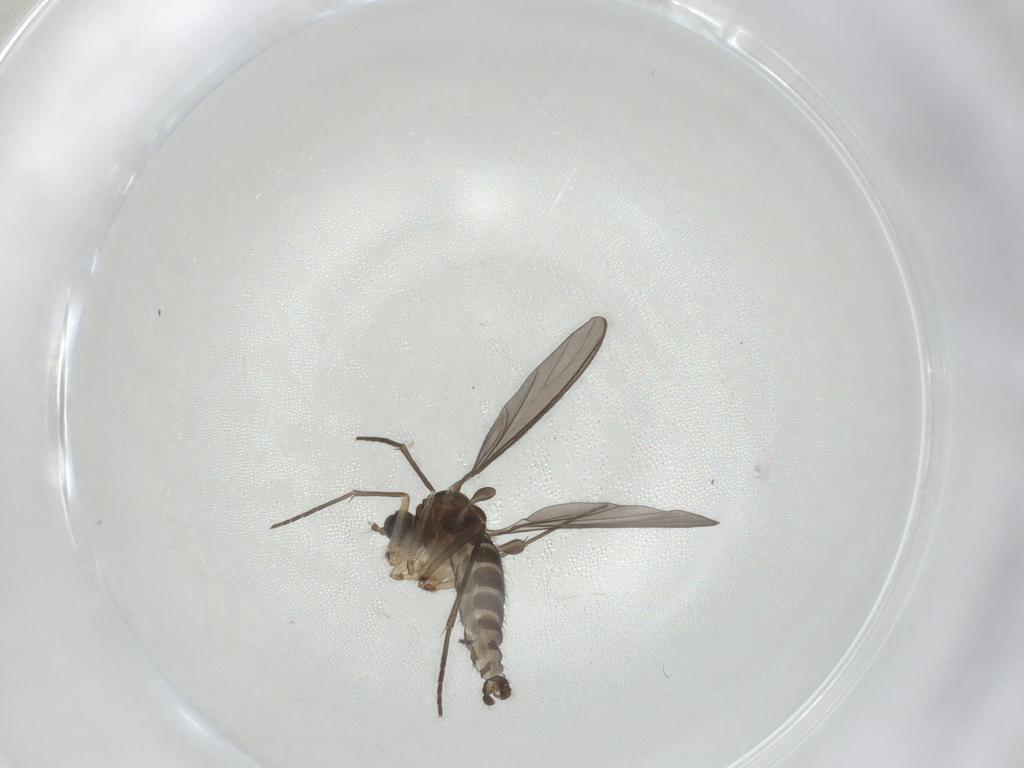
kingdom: Animalia
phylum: Arthropoda
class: Insecta
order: Diptera
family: Sciaridae
